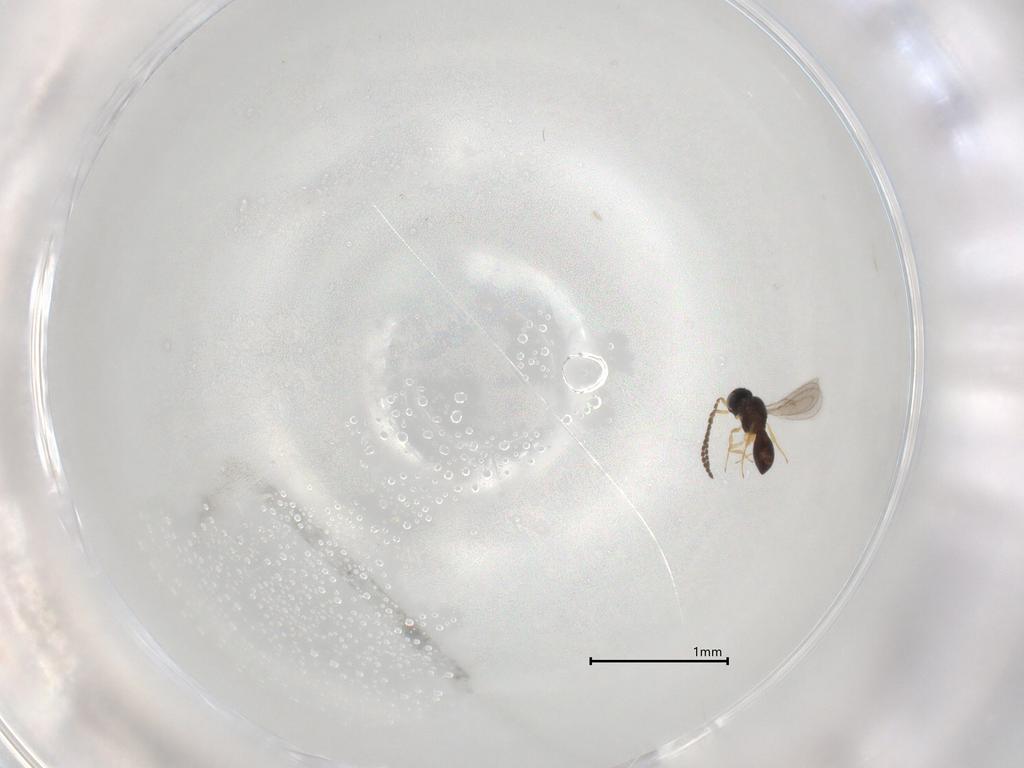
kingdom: Animalia
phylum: Arthropoda
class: Insecta
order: Hymenoptera
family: Scelionidae
